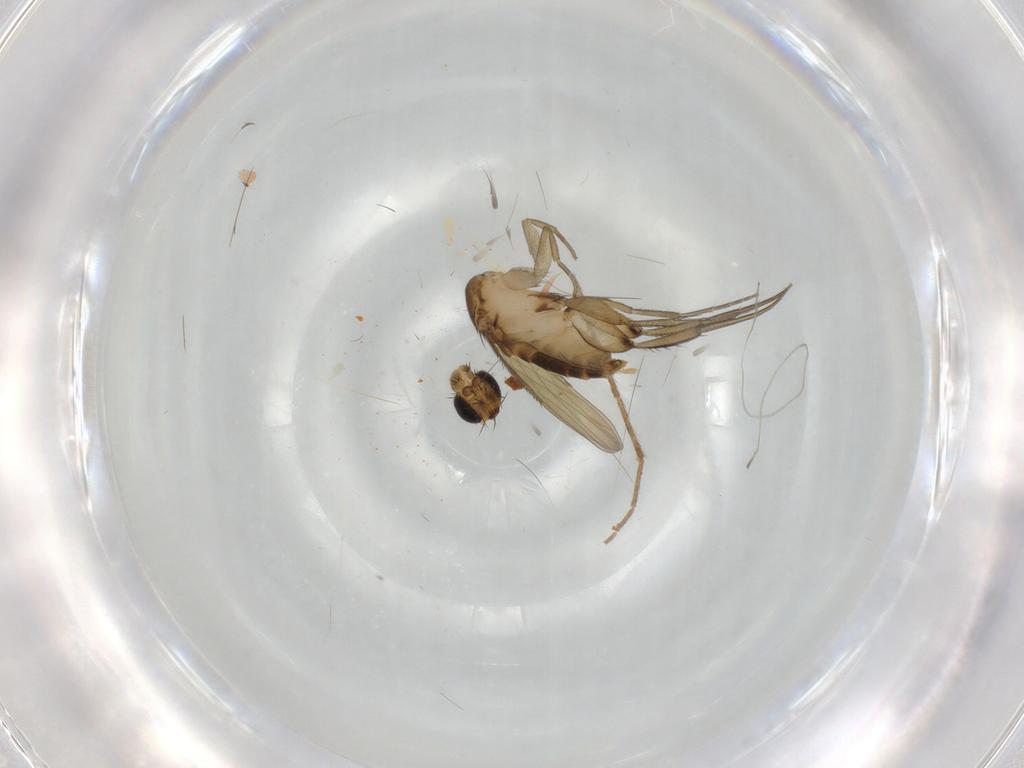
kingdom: Animalia
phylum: Arthropoda
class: Insecta
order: Diptera
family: Phoridae
